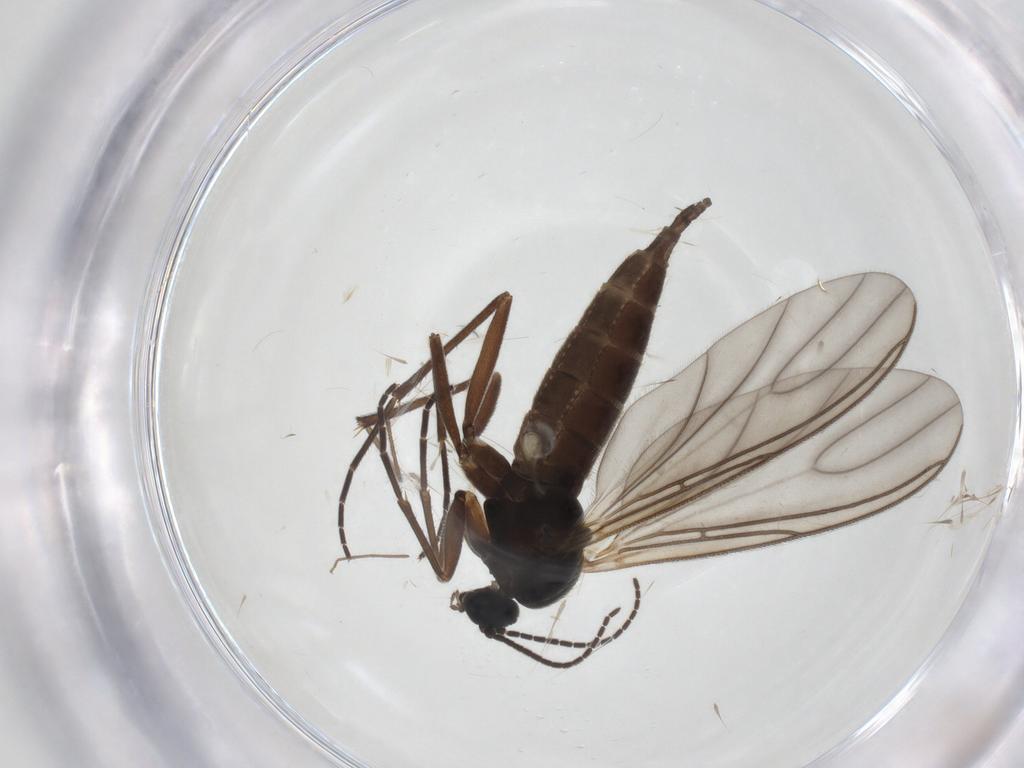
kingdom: Animalia
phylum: Arthropoda
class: Insecta
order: Diptera
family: Sciaridae
